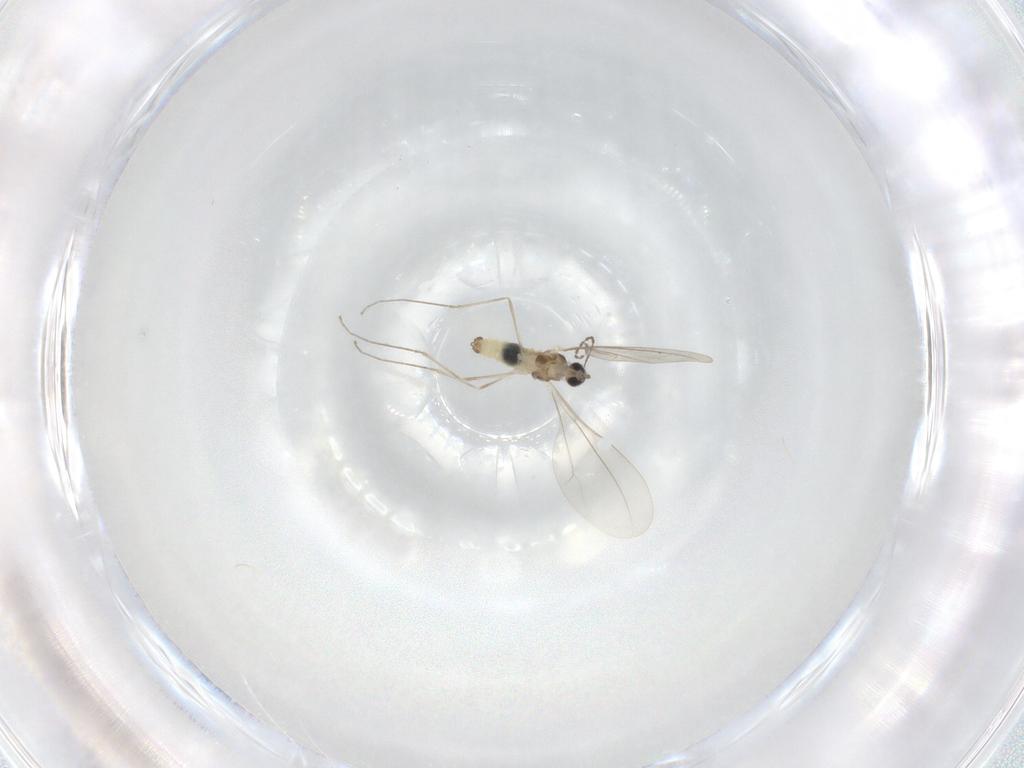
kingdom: Animalia
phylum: Arthropoda
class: Insecta
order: Diptera
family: Cecidomyiidae
